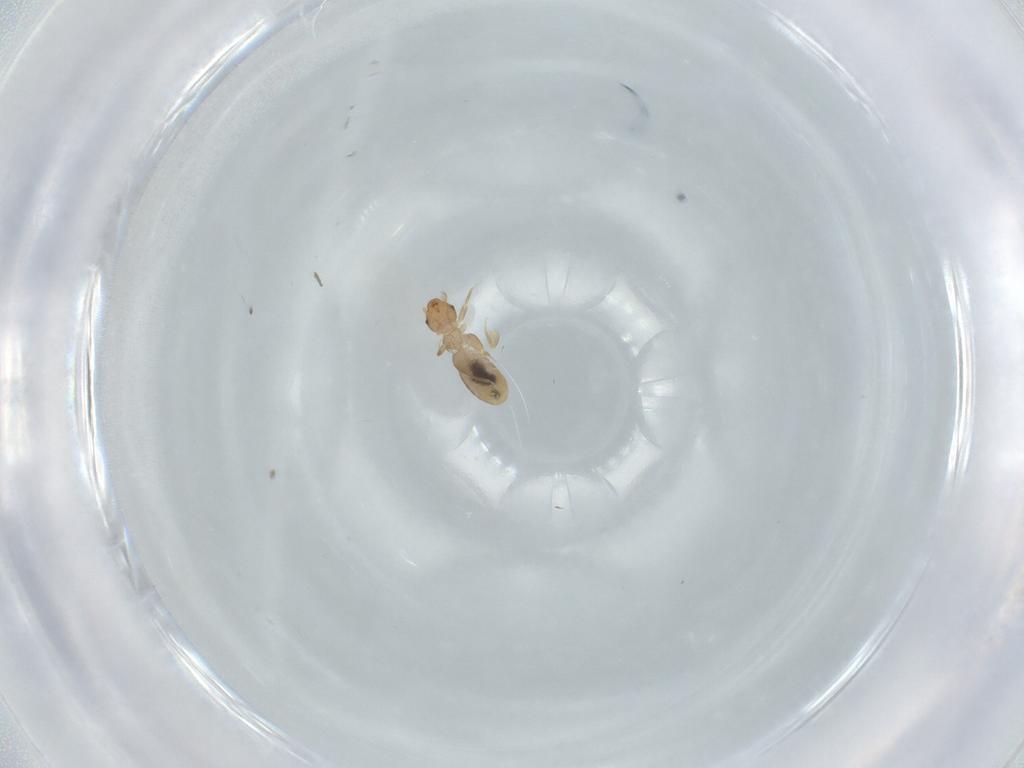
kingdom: Animalia
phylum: Arthropoda
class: Insecta
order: Psocodea
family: Liposcelididae
